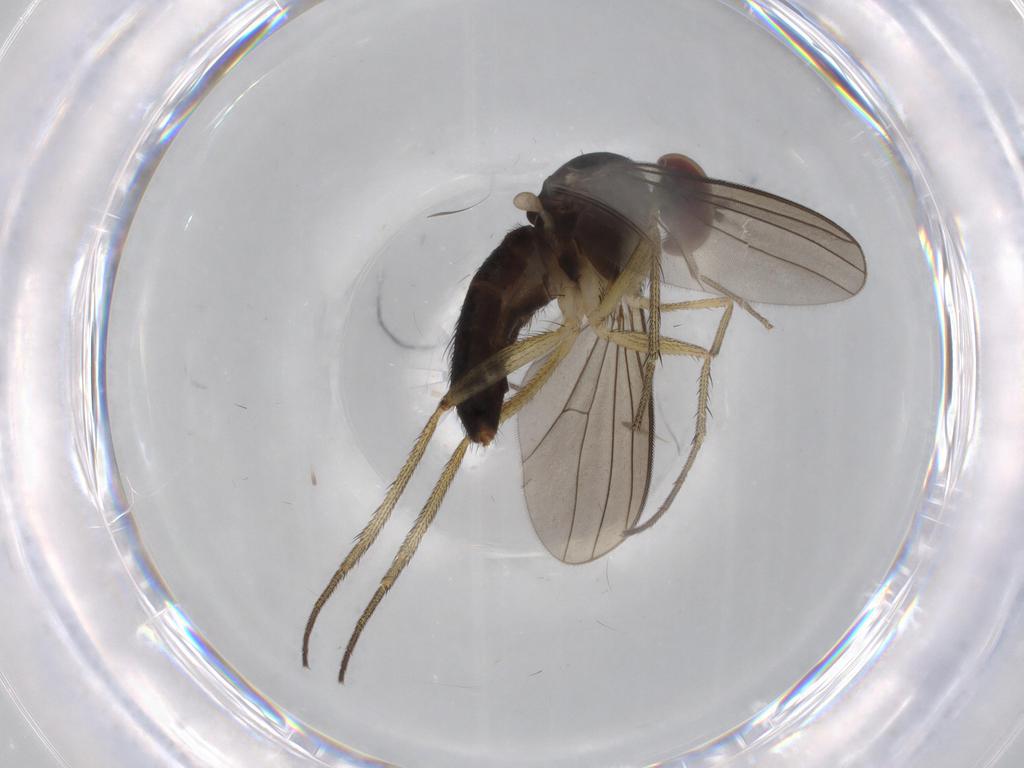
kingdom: Animalia
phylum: Arthropoda
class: Insecta
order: Diptera
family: Dolichopodidae
